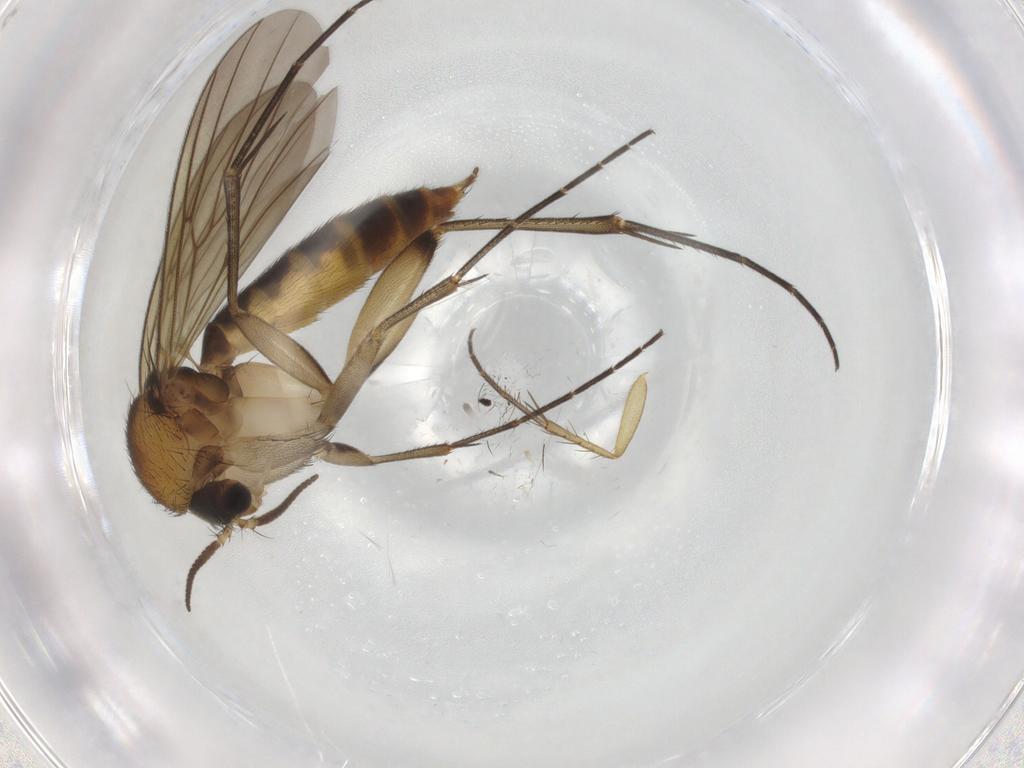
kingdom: Animalia
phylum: Arthropoda
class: Insecta
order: Diptera
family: Mycetophilidae
